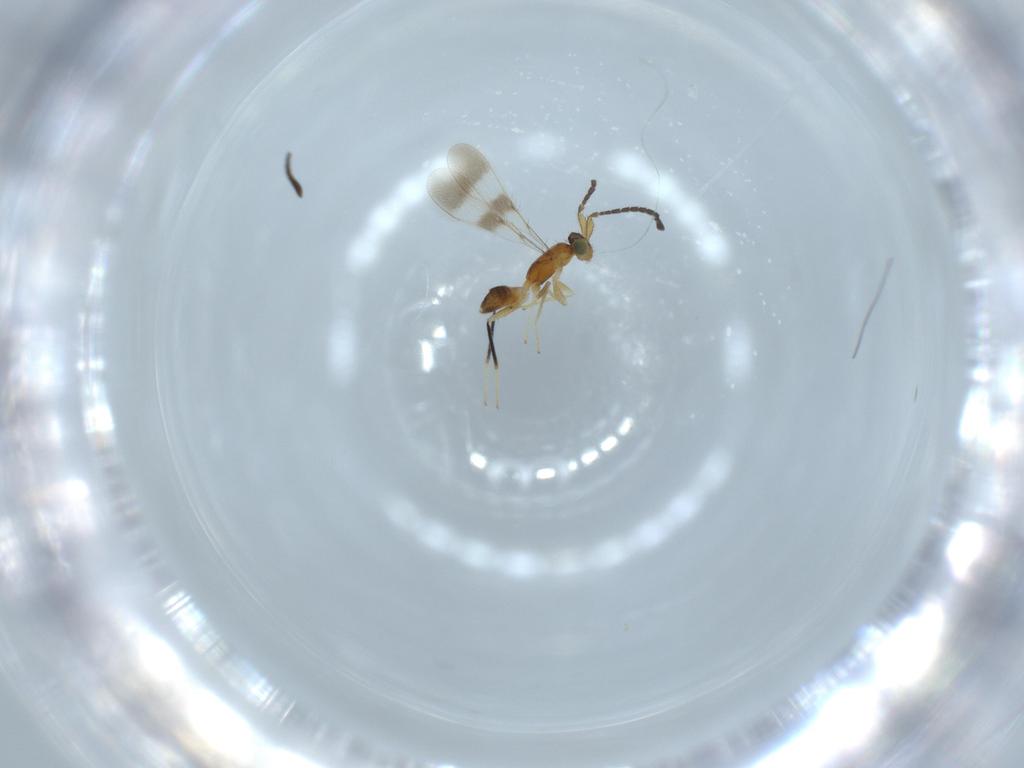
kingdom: Animalia
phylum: Arthropoda
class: Insecta
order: Hymenoptera
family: Mymaridae
